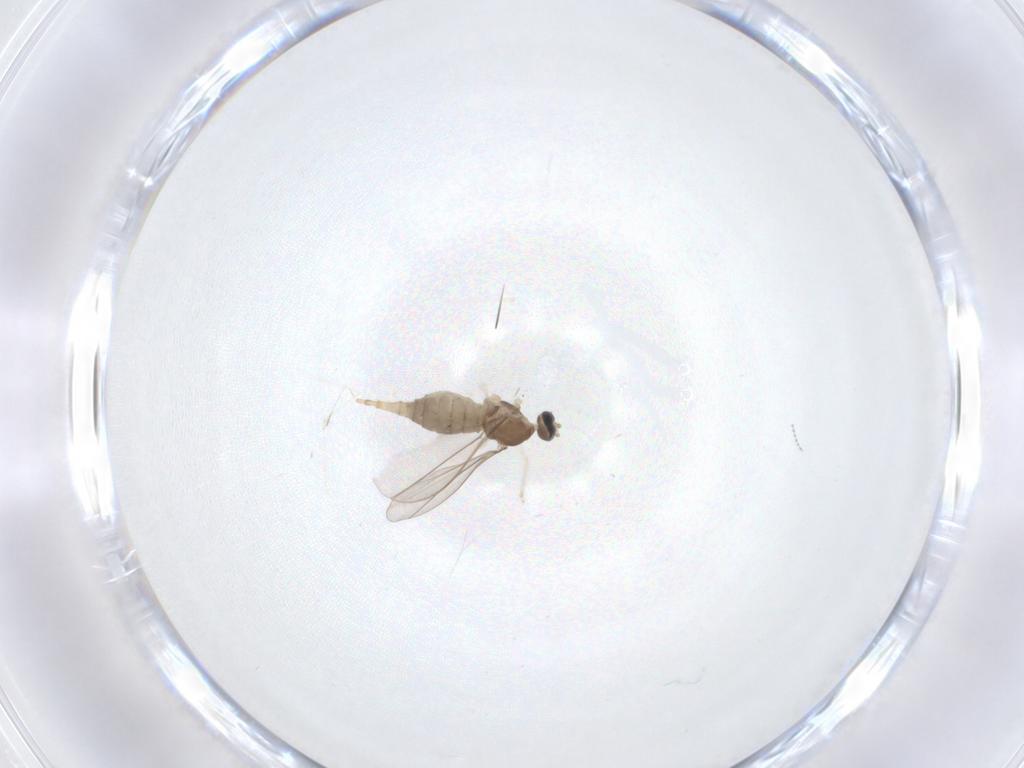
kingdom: Animalia
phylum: Arthropoda
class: Insecta
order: Diptera
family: Cecidomyiidae
